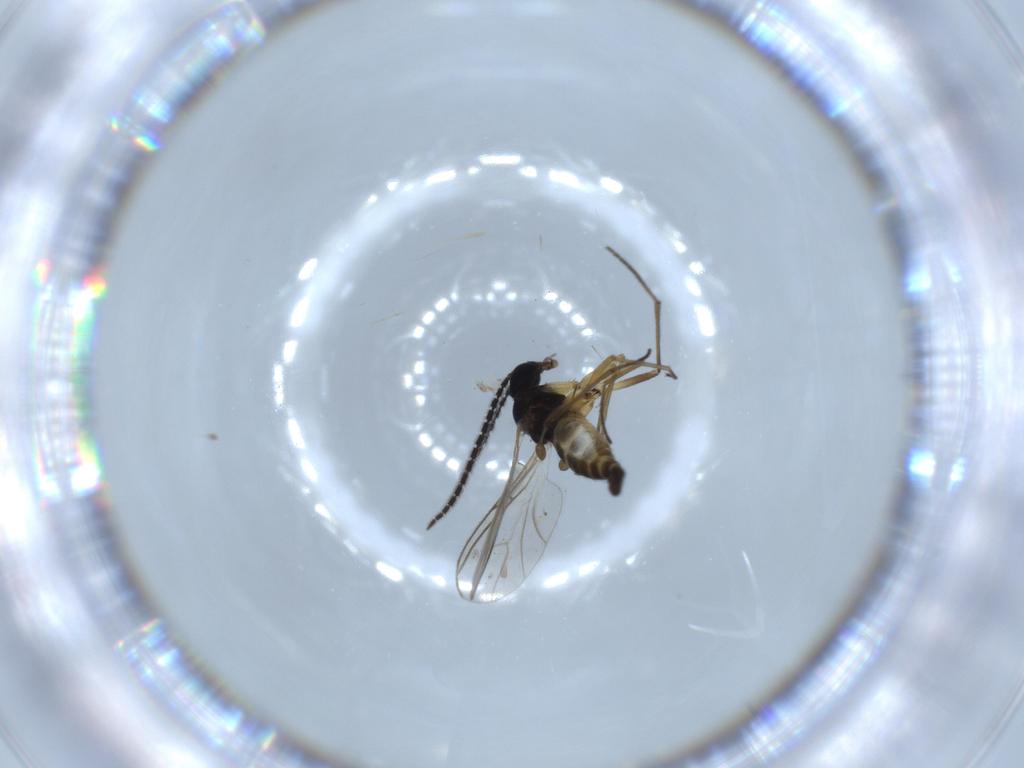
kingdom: Animalia
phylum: Arthropoda
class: Insecta
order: Diptera
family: Sciaridae
